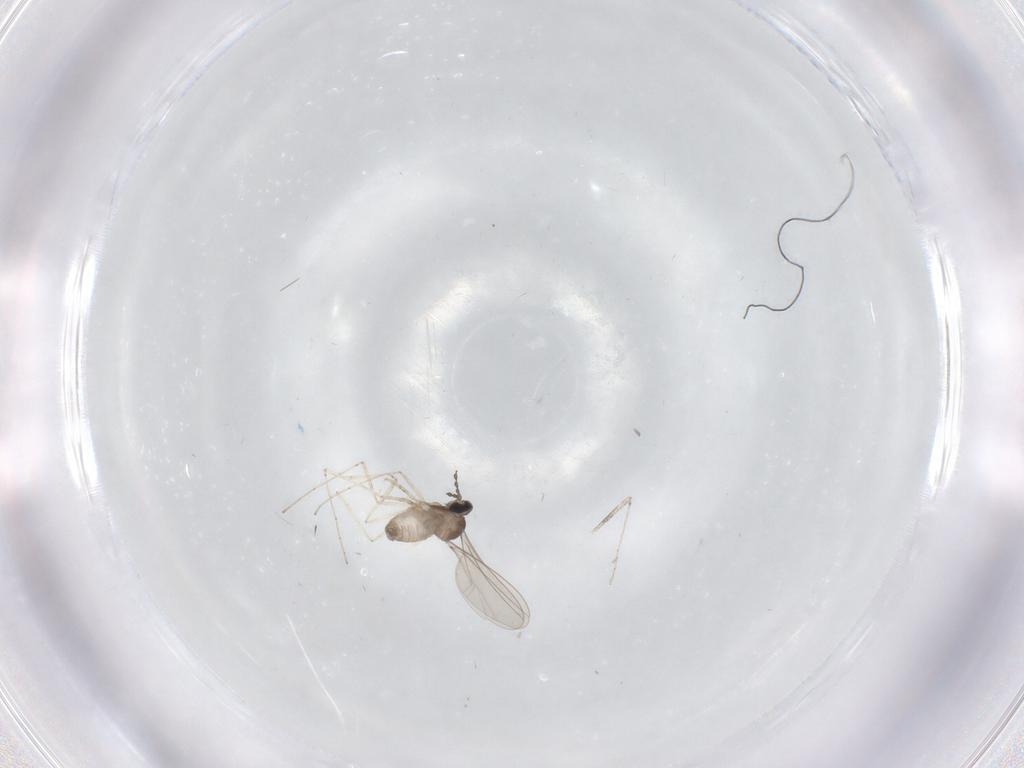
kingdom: Animalia
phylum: Arthropoda
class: Insecta
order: Diptera
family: Cecidomyiidae
